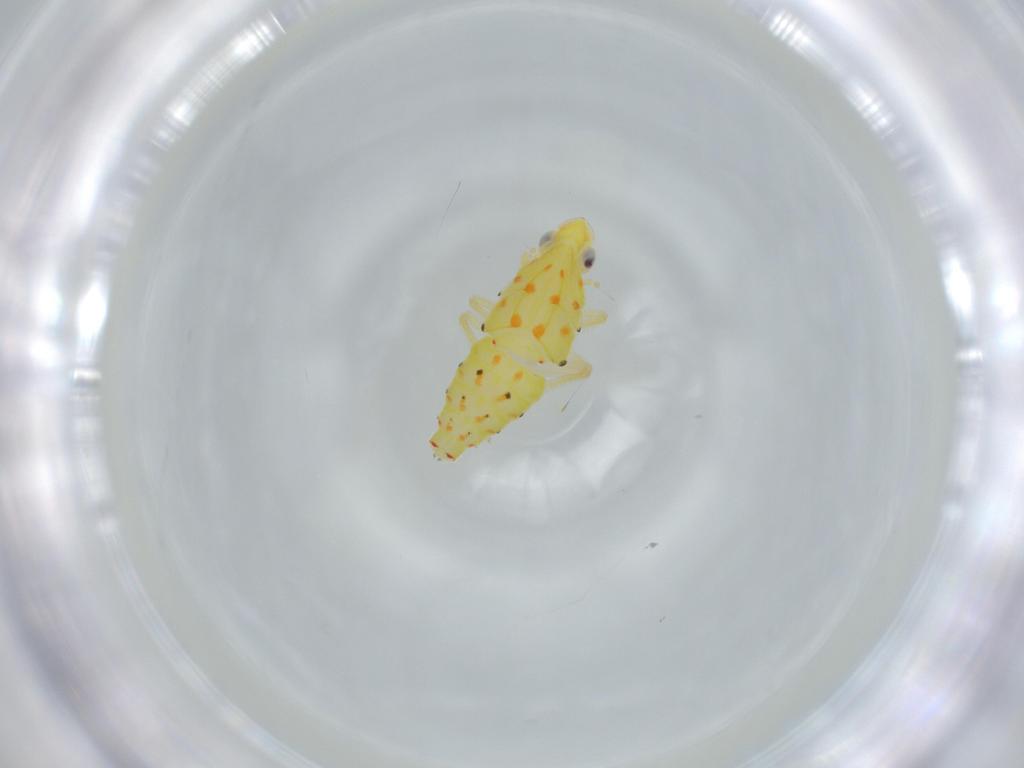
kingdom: Animalia
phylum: Arthropoda
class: Insecta
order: Hemiptera
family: Tropiduchidae
